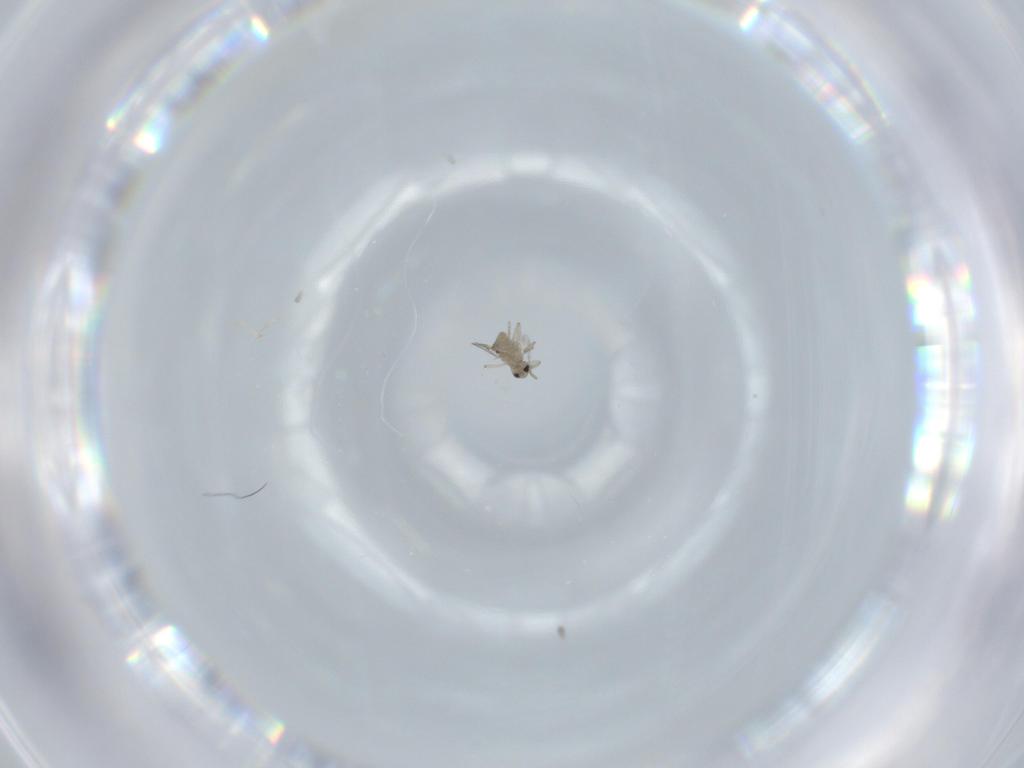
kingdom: Animalia
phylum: Arthropoda
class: Insecta
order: Diptera
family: Cecidomyiidae
